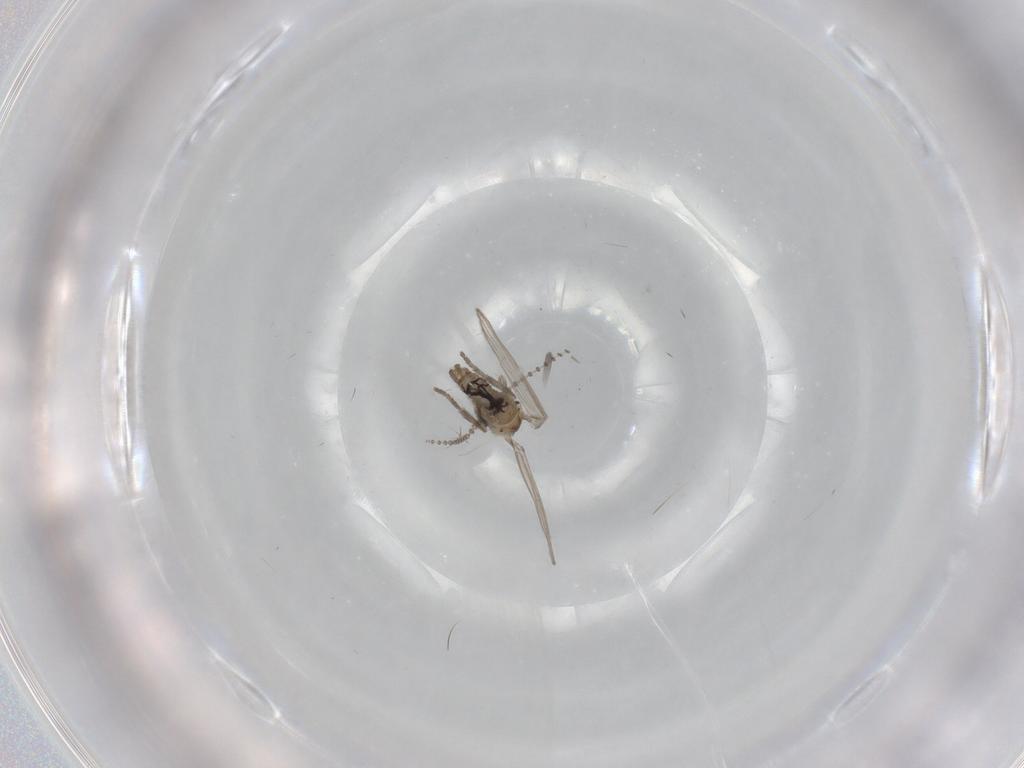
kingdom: Animalia
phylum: Arthropoda
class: Insecta
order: Diptera
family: Psychodidae
